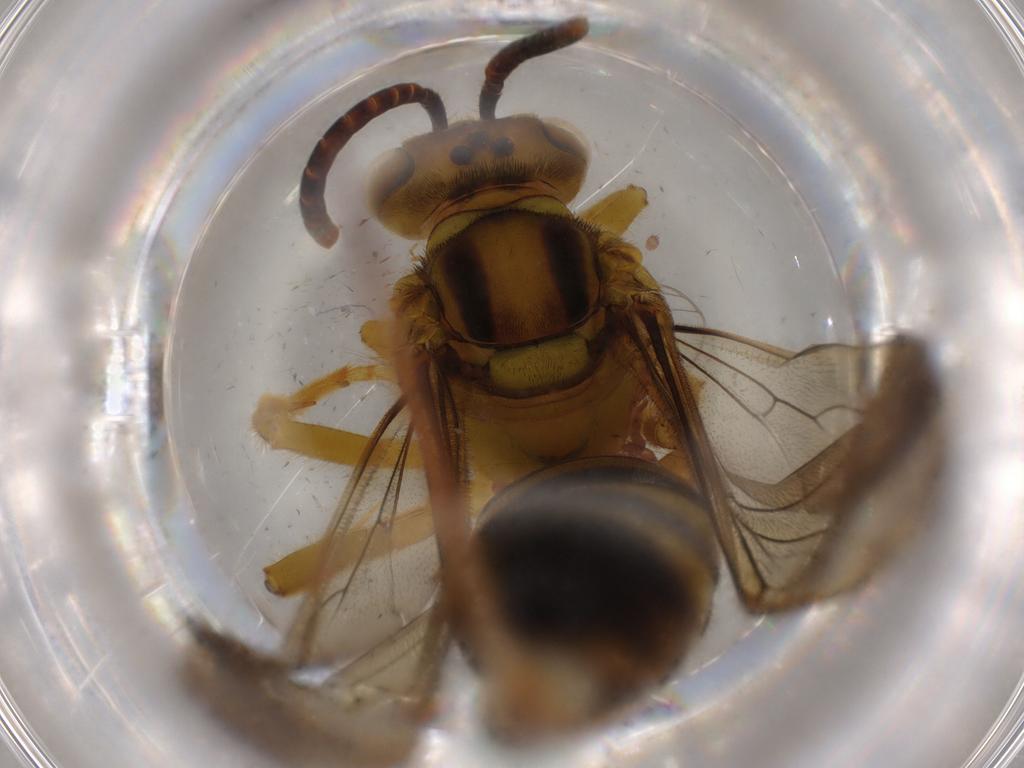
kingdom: Animalia
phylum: Arthropoda
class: Insecta
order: Hymenoptera
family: Apidae
